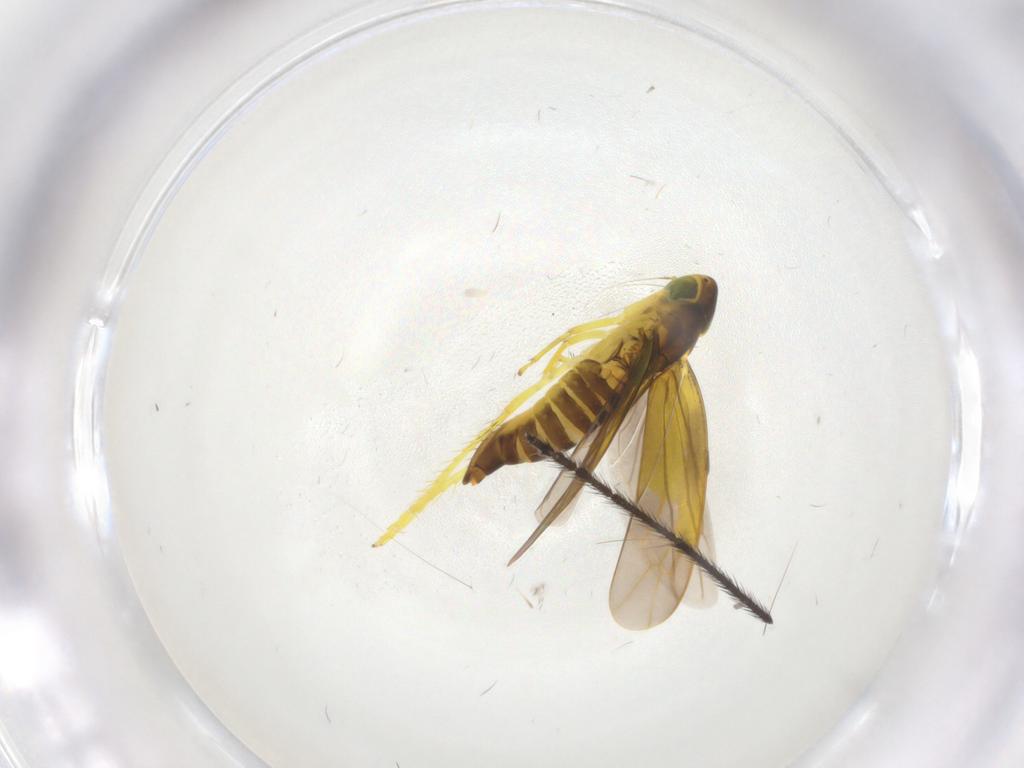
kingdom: Animalia
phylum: Arthropoda
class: Insecta
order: Hemiptera
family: Cicadellidae
